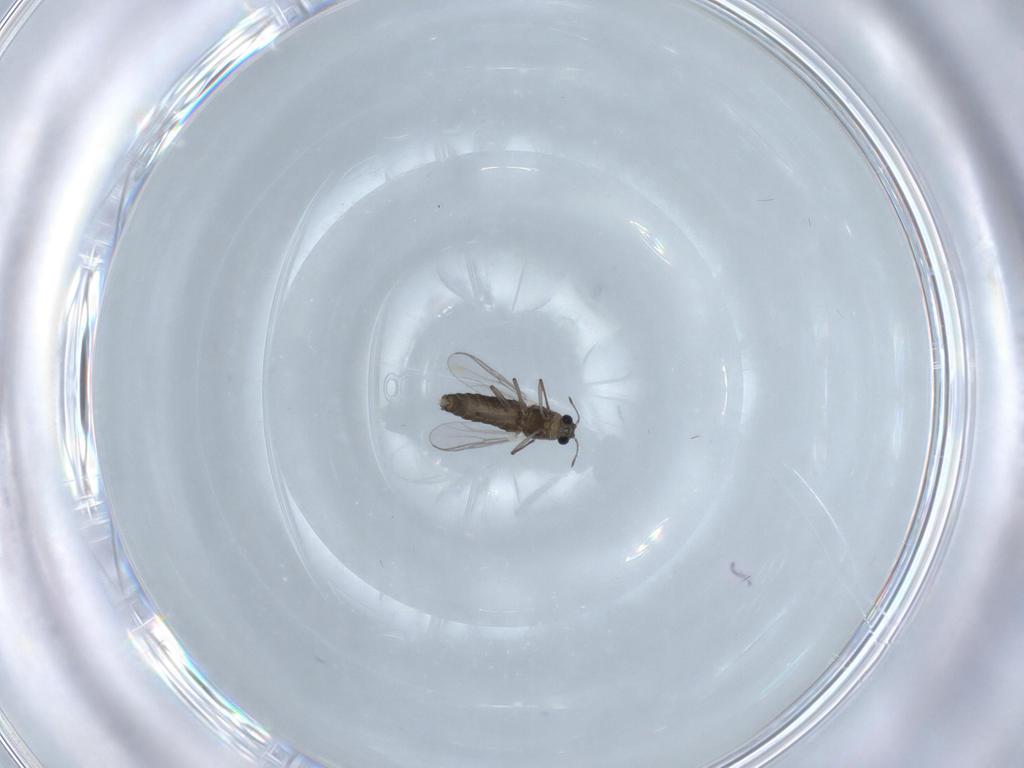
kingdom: Animalia
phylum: Arthropoda
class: Insecta
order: Diptera
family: Chironomidae
